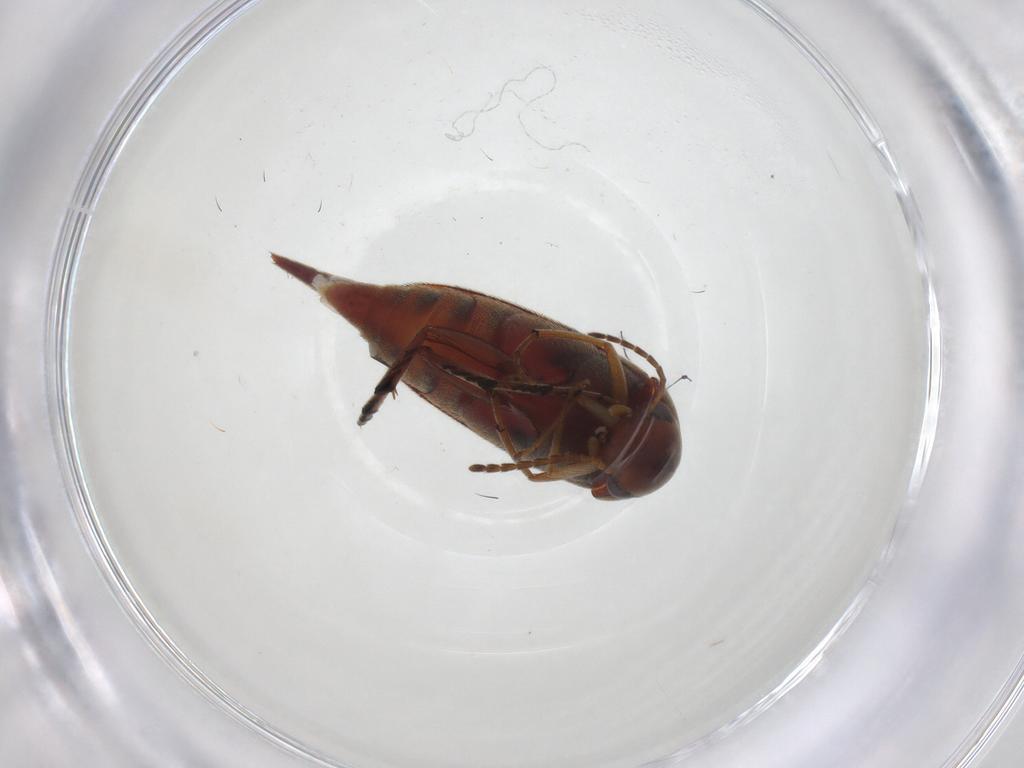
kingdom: Animalia
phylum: Arthropoda
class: Insecta
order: Coleoptera
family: Mordellidae
